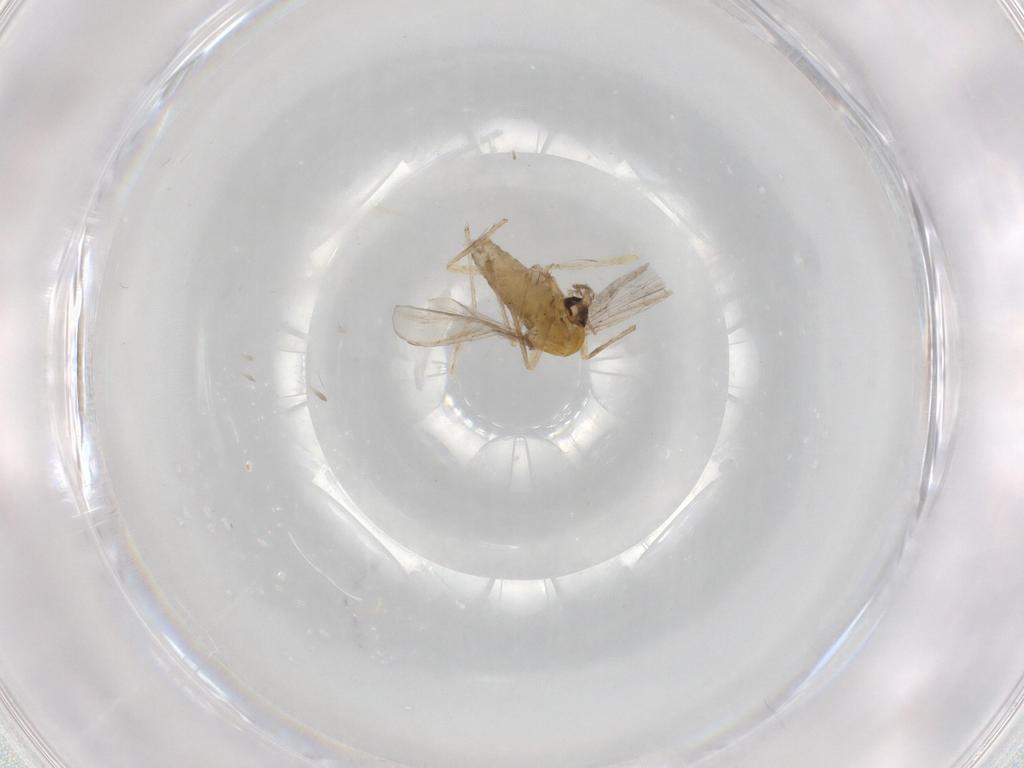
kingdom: Animalia
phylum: Arthropoda
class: Insecta
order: Diptera
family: Chironomidae
